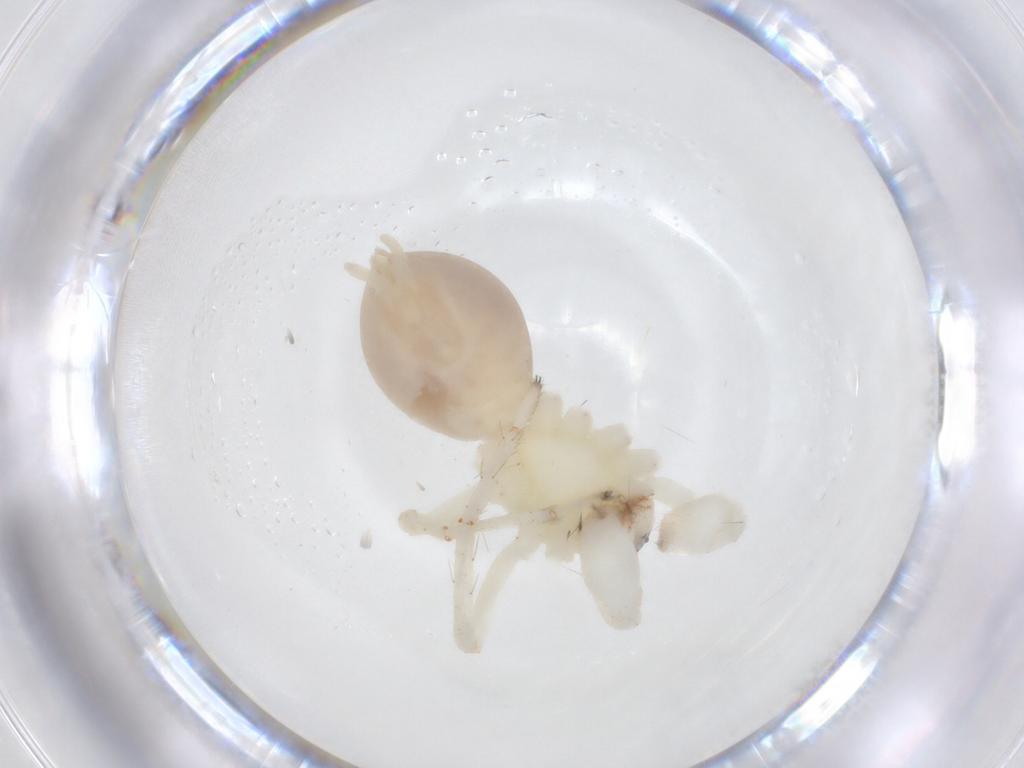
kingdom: Animalia
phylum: Arthropoda
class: Arachnida
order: Araneae
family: Anyphaenidae
